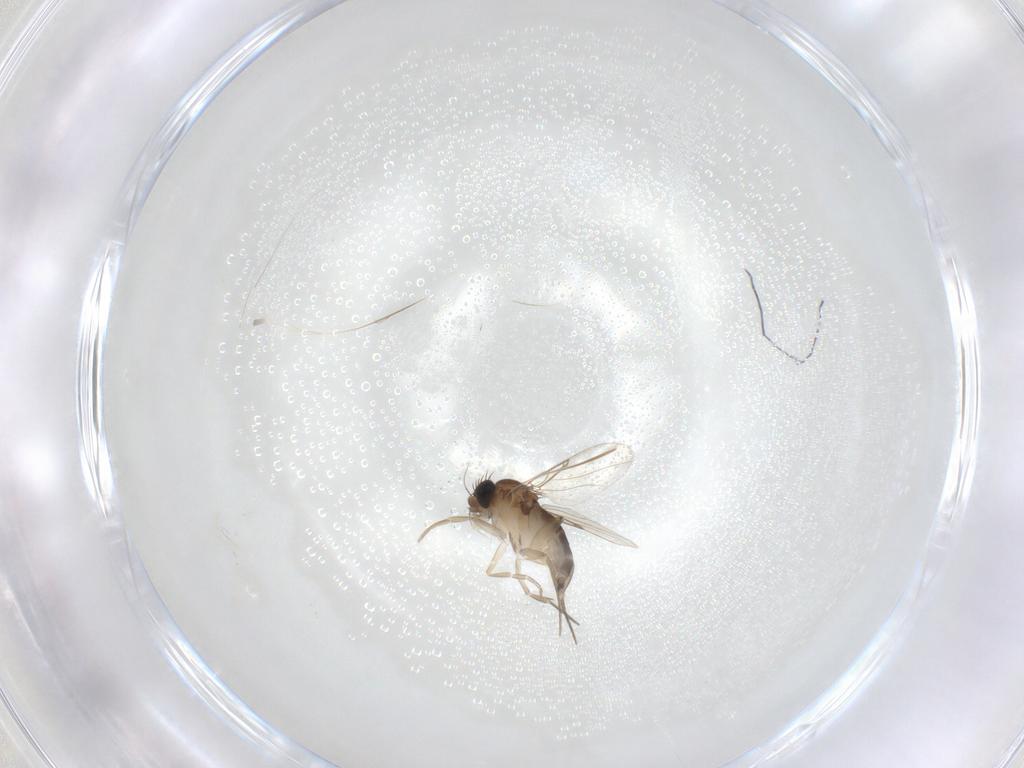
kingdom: Animalia
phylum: Arthropoda
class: Insecta
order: Diptera
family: Phoridae
